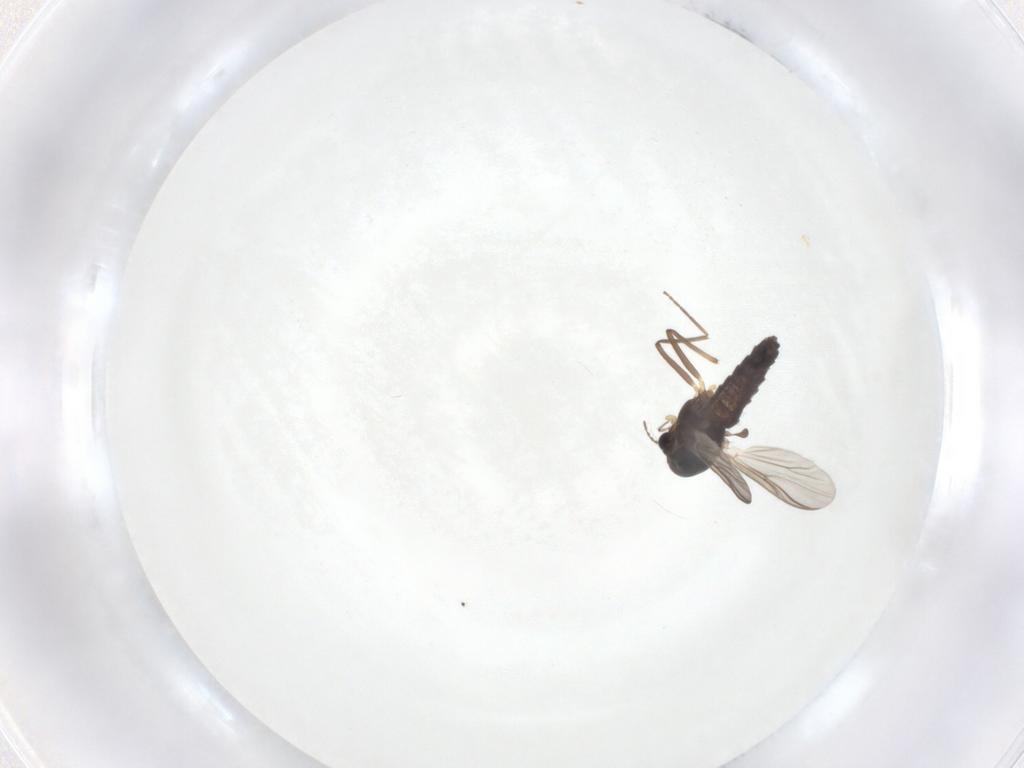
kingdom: Animalia
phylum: Arthropoda
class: Insecta
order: Diptera
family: Chironomidae
